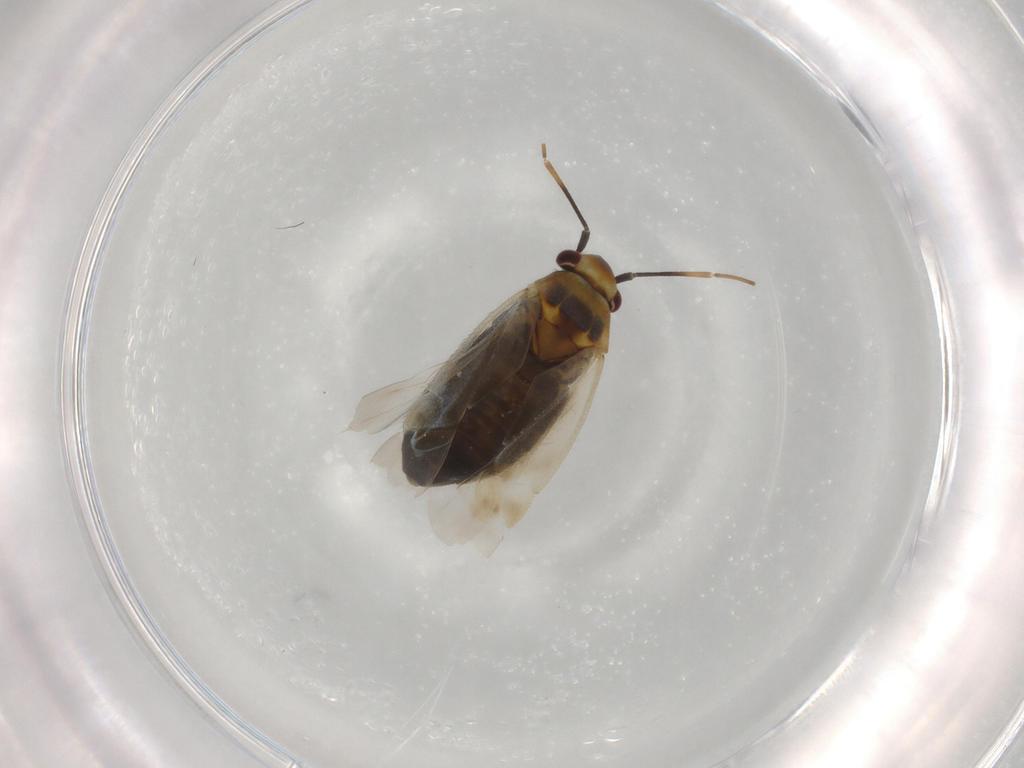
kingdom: Animalia
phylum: Arthropoda
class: Insecta
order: Hemiptera
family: Miridae
